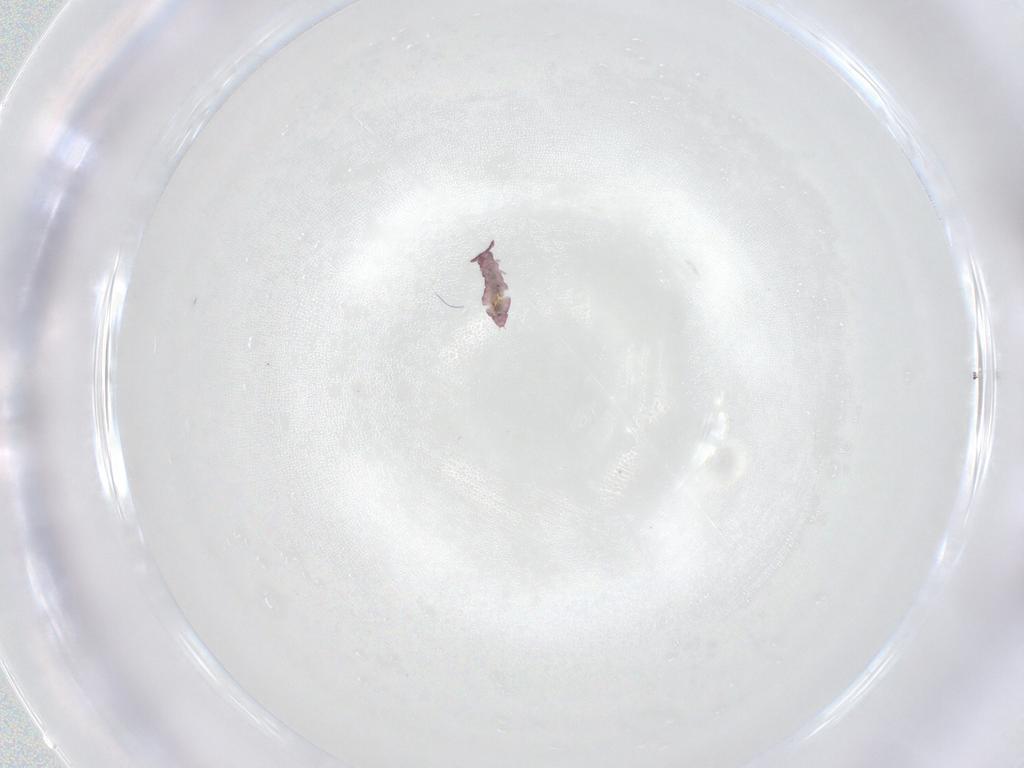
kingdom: Animalia
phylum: Arthropoda
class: Collembola
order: Poduromorpha
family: Hypogastruridae
